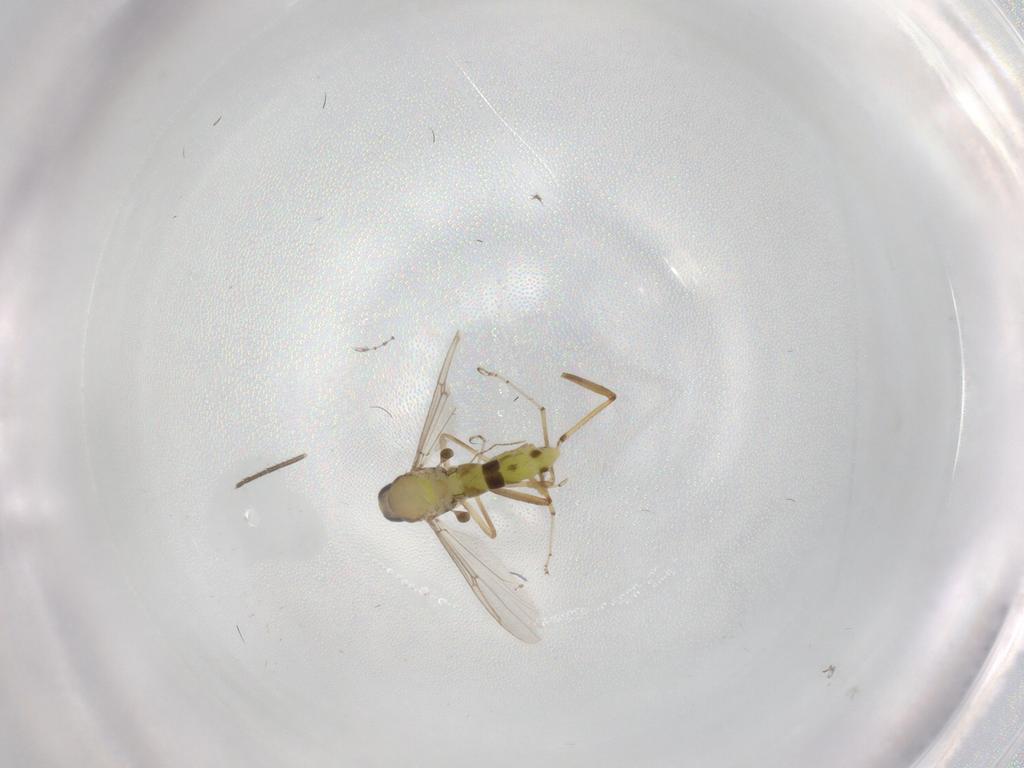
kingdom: Animalia
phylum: Arthropoda
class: Insecta
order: Diptera
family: Ceratopogonidae
